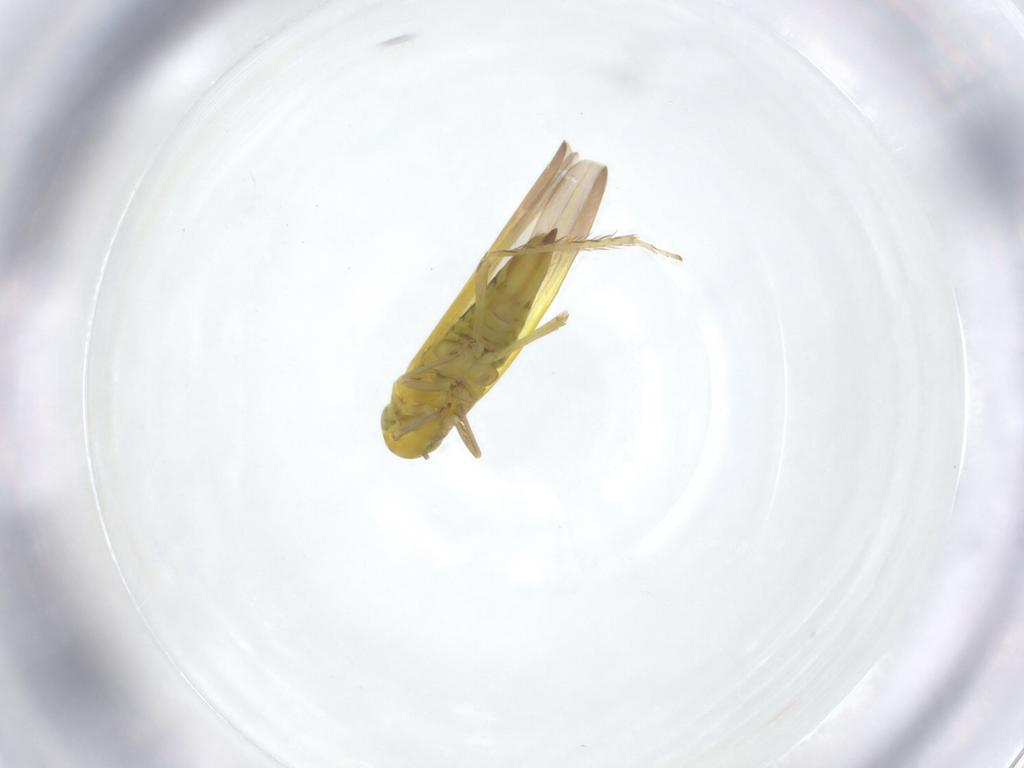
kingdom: Animalia
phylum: Arthropoda
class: Insecta
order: Hemiptera
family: Cicadellidae
